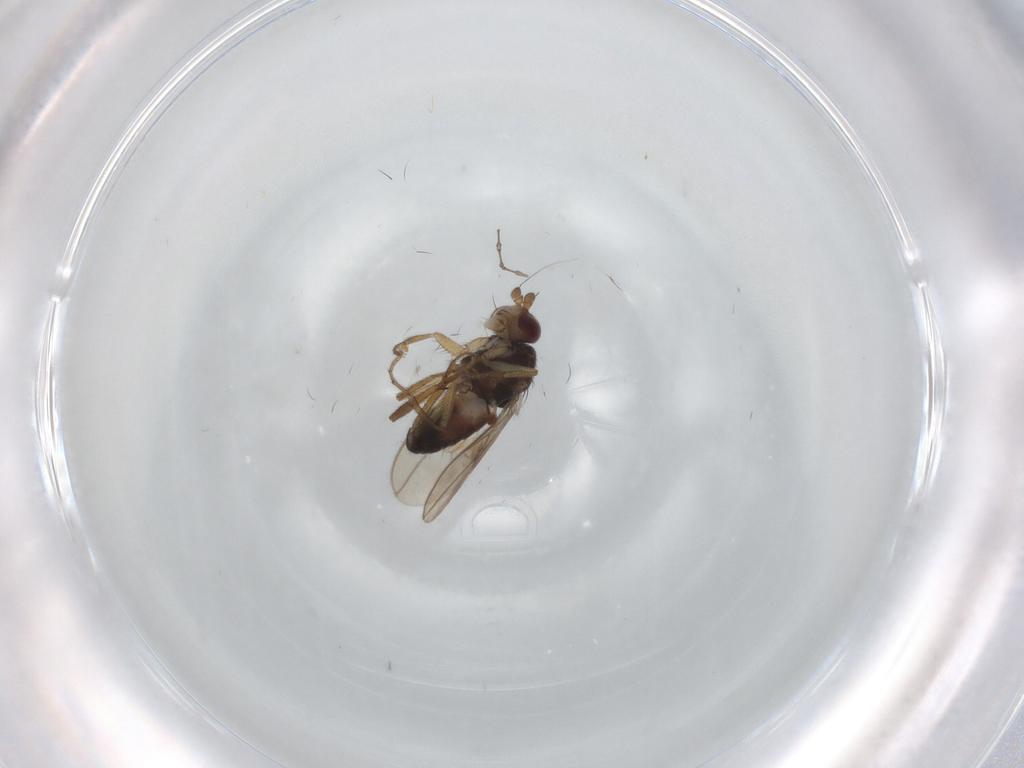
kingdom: Animalia
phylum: Arthropoda
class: Insecta
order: Diptera
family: Sphaeroceridae
